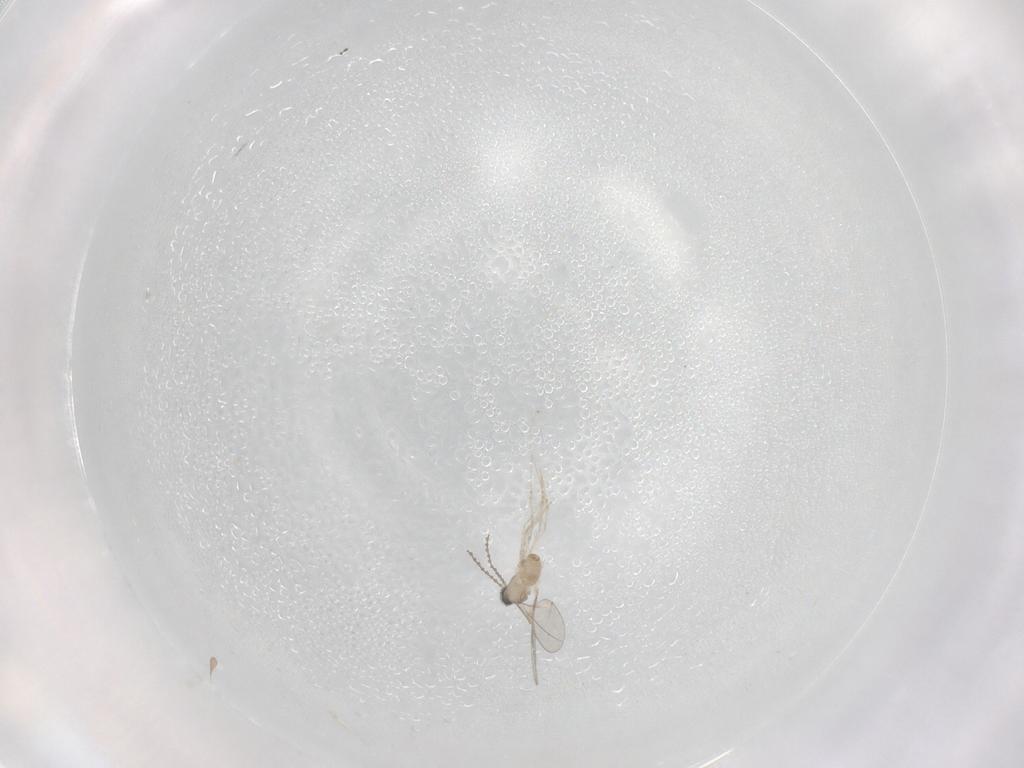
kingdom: Animalia
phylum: Arthropoda
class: Insecta
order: Diptera
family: Cecidomyiidae
